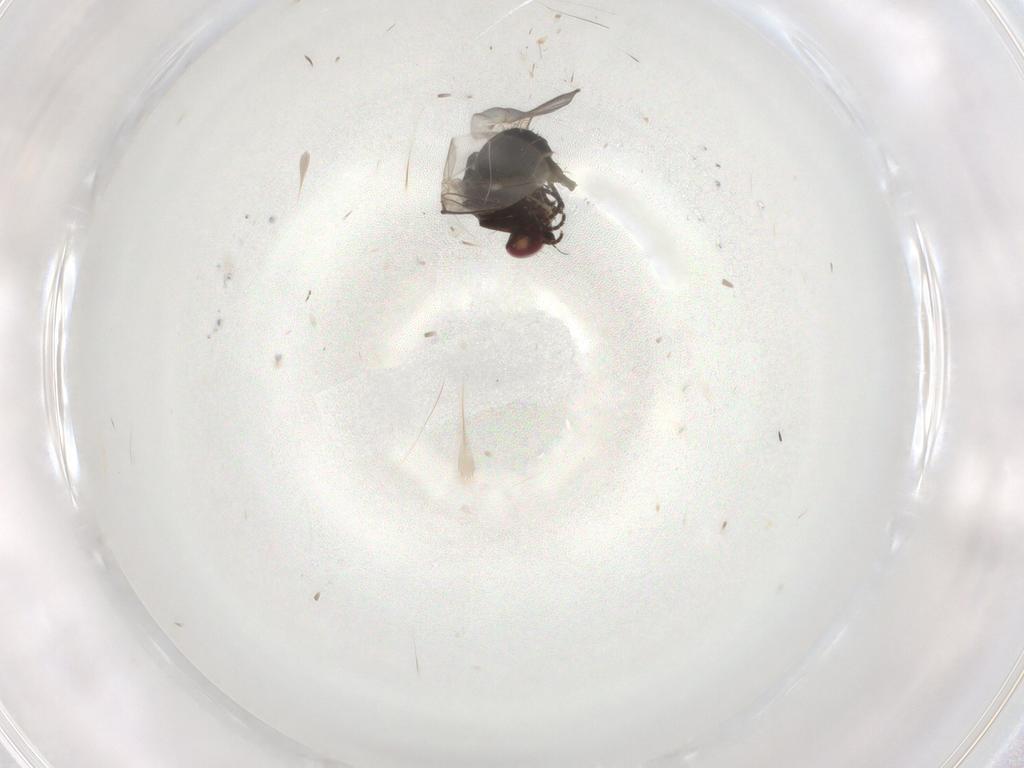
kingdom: Animalia
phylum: Arthropoda
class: Insecta
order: Diptera
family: Agromyzidae
